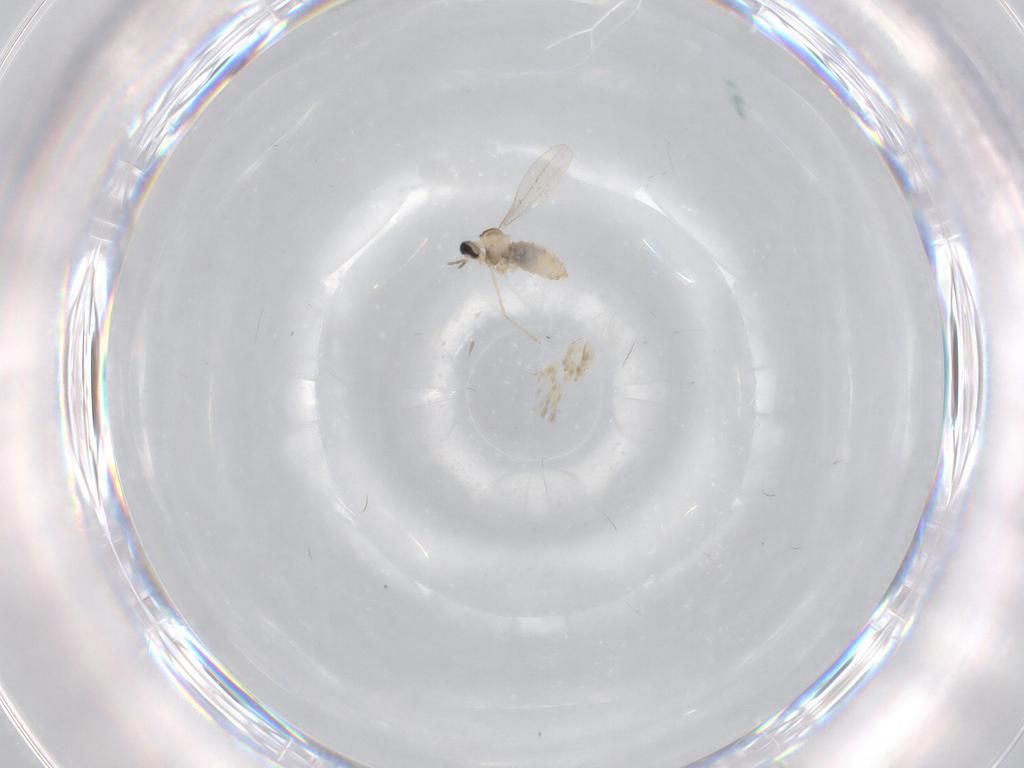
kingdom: Animalia
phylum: Arthropoda
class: Insecta
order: Diptera
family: Cecidomyiidae
